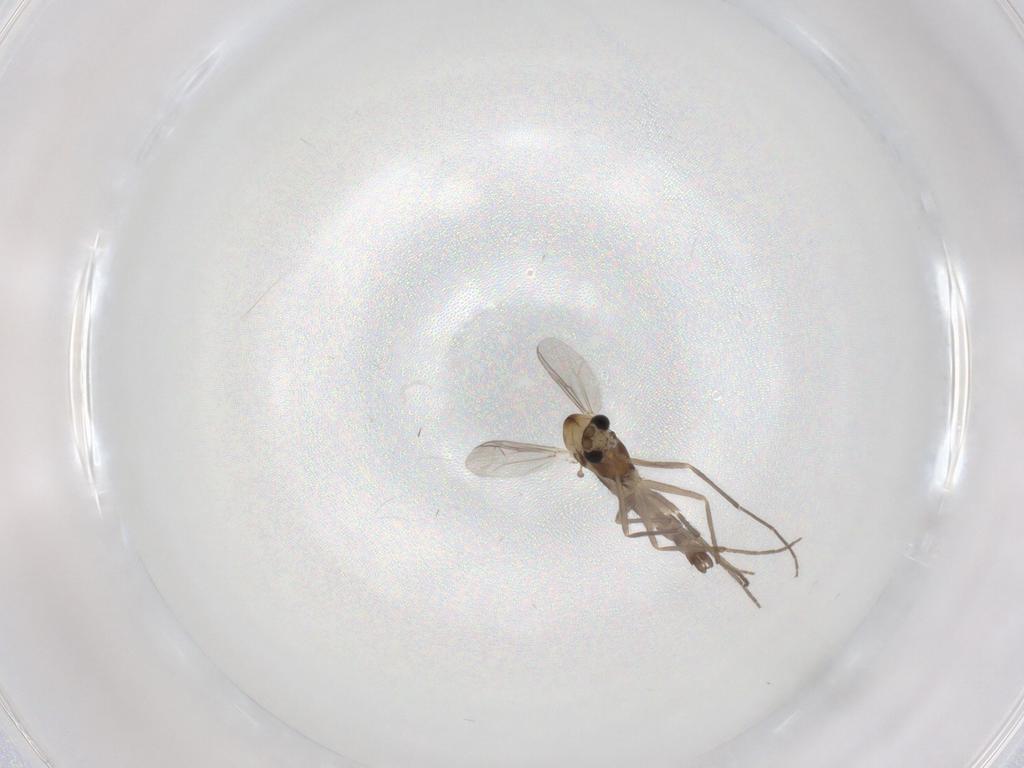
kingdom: Animalia
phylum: Arthropoda
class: Insecta
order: Diptera
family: Chironomidae
